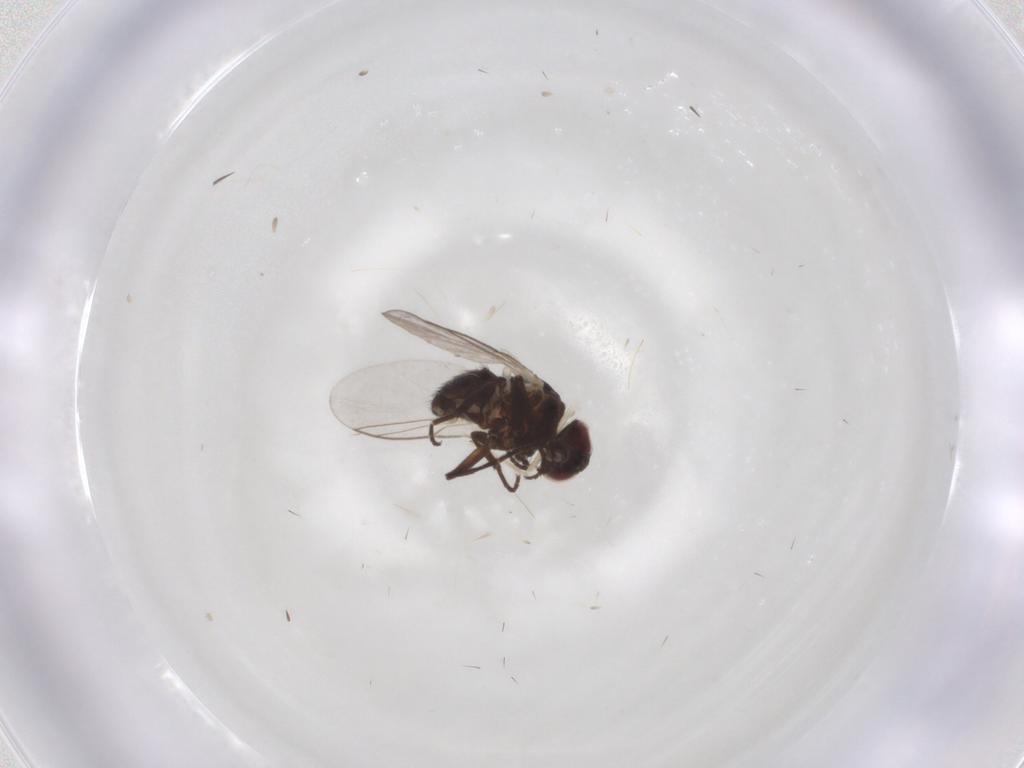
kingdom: Animalia
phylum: Arthropoda
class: Insecta
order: Diptera
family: Chironomidae
